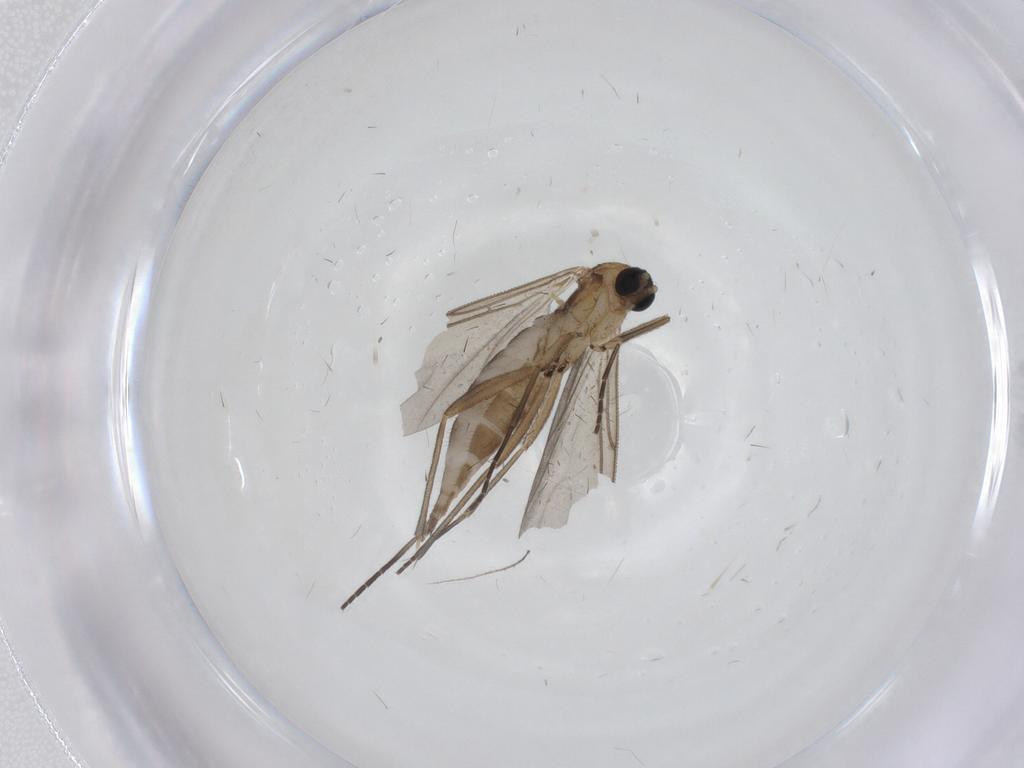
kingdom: Animalia
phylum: Arthropoda
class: Insecta
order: Diptera
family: Sciaridae
